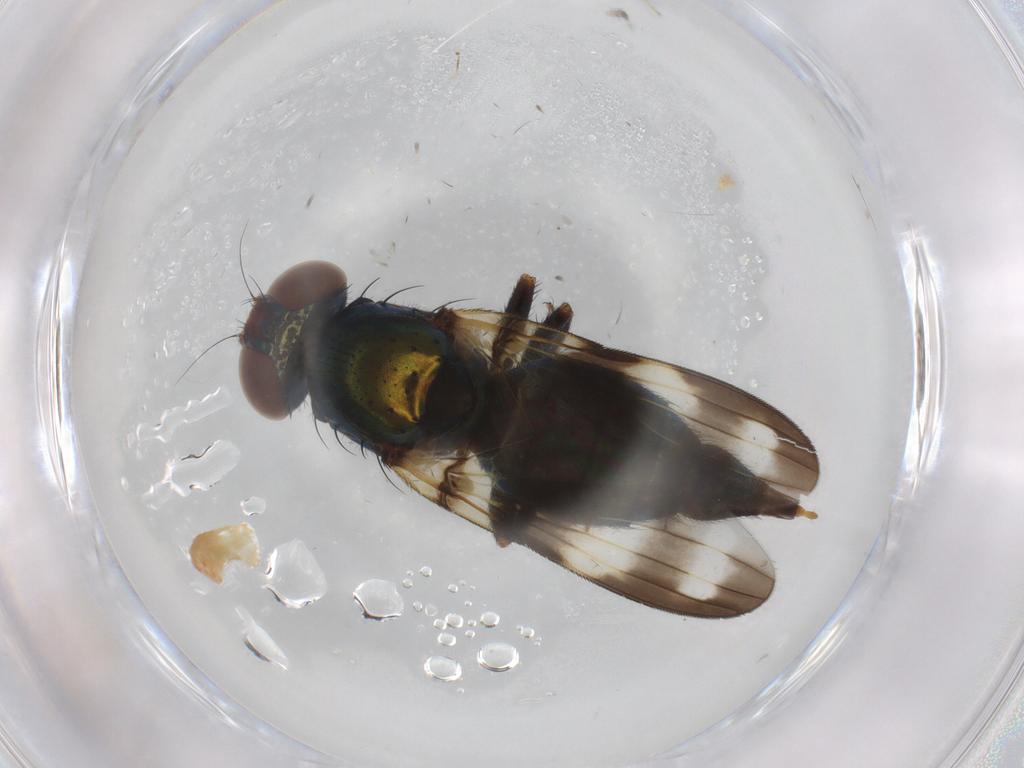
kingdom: Animalia
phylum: Arthropoda
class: Insecta
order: Diptera
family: Ulidiidae
